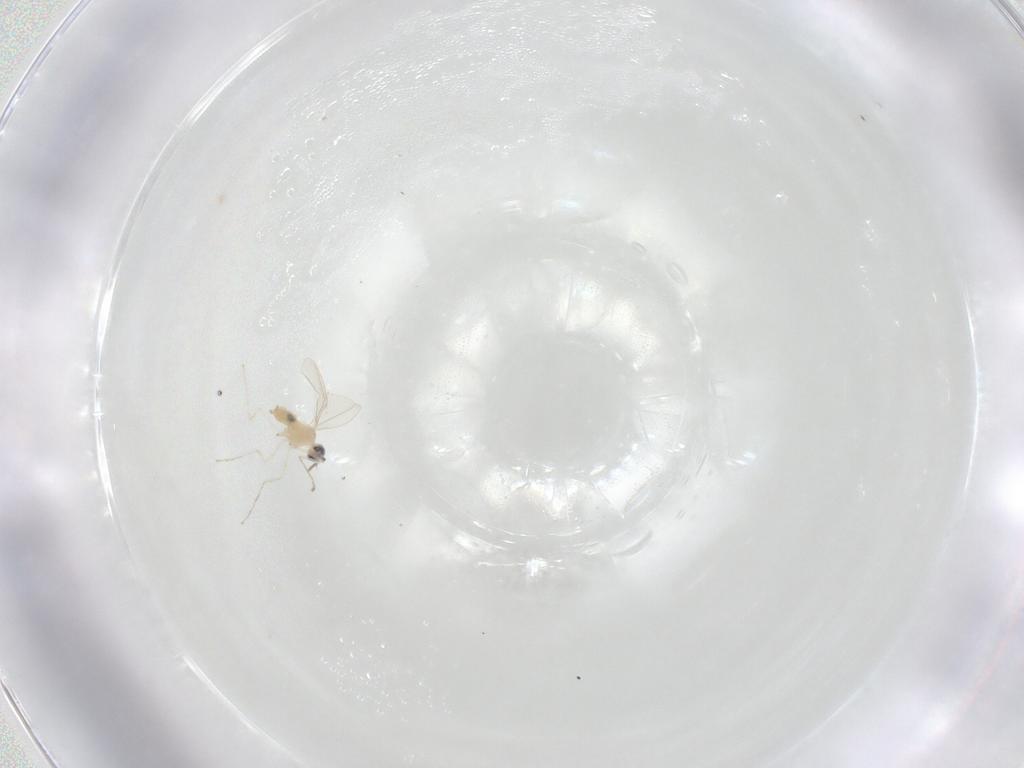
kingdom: Animalia
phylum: Arthropoda
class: Insecta
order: Diptera
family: Cecidomyiidae
